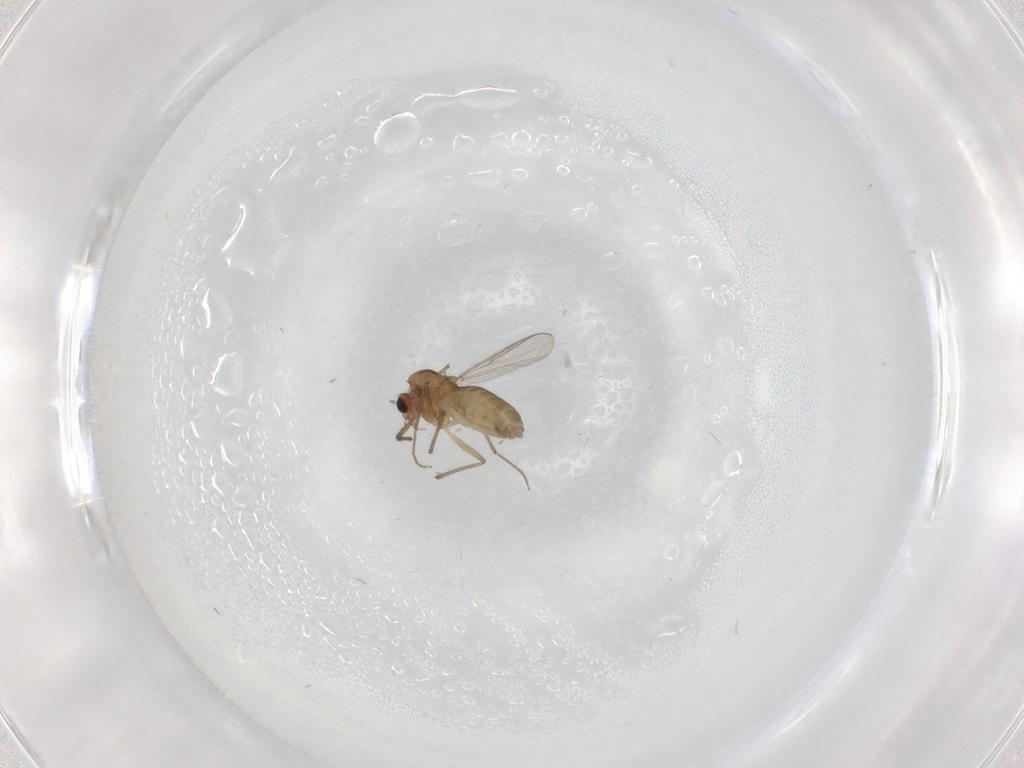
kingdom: Animalia
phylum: Arthropoda
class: Insecta
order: Diptera
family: Chironomidae
